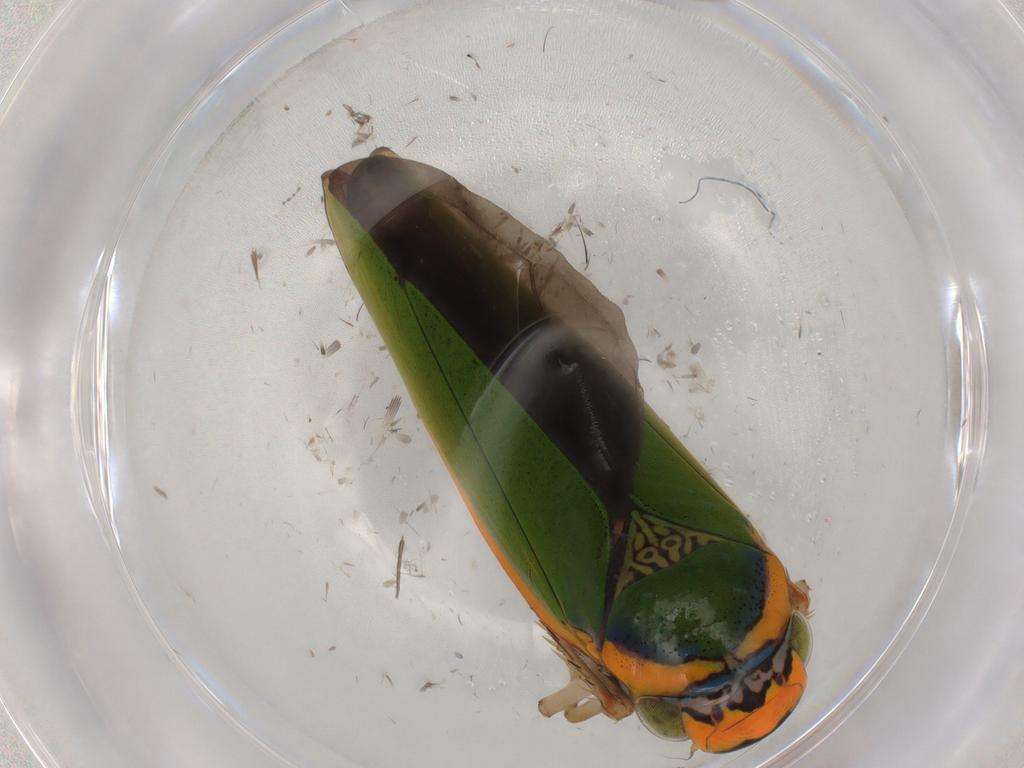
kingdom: Animalia
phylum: Arthropoda
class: Insecta
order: Hemiptera
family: Cicadellidae
